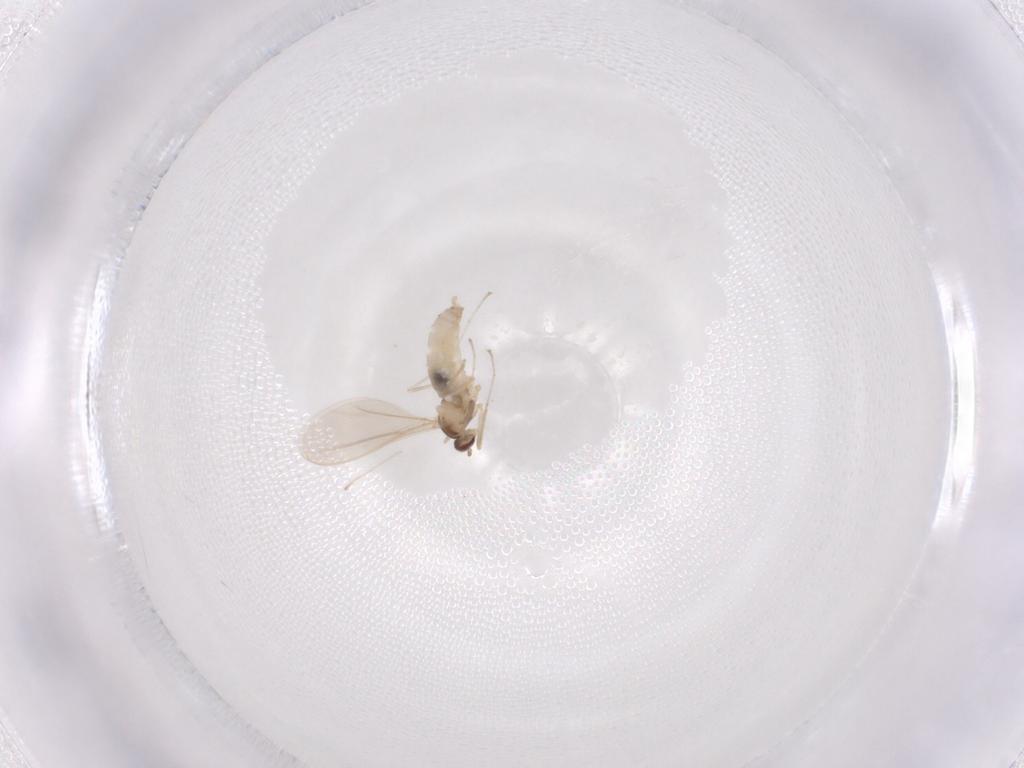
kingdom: Animalia
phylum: Arthropoda
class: Insecta
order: Diptera
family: Cecidomyiidae
